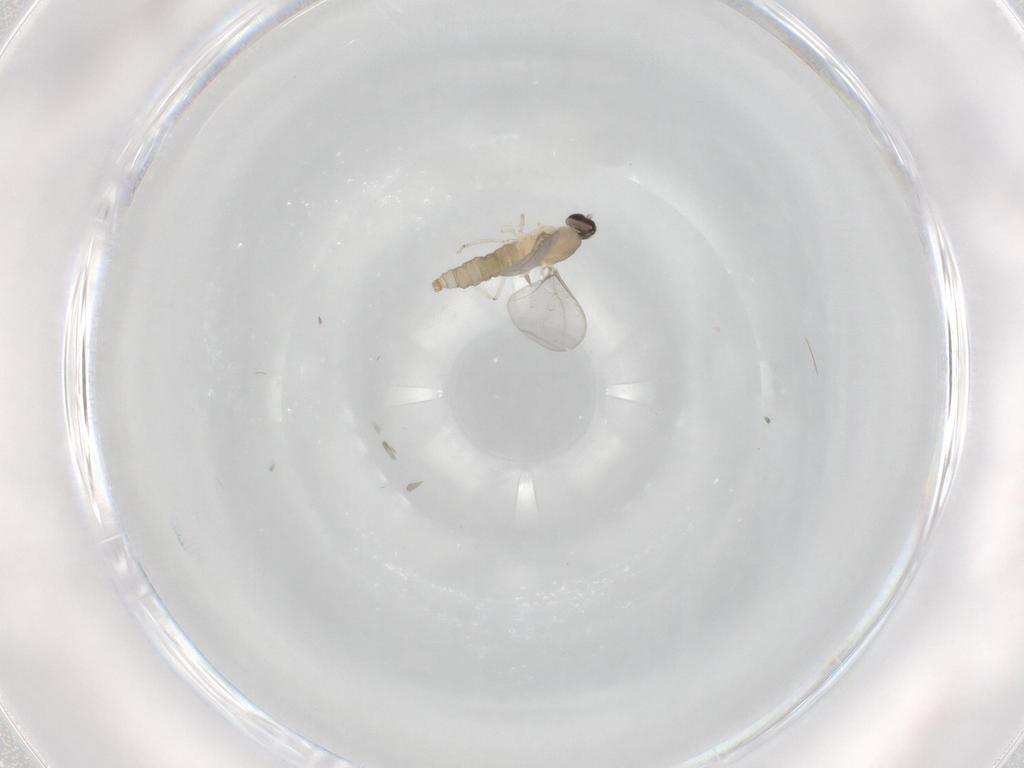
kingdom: Animalia
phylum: Arthropoda
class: Insecta
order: Diptera
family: Cecidomyiidae
